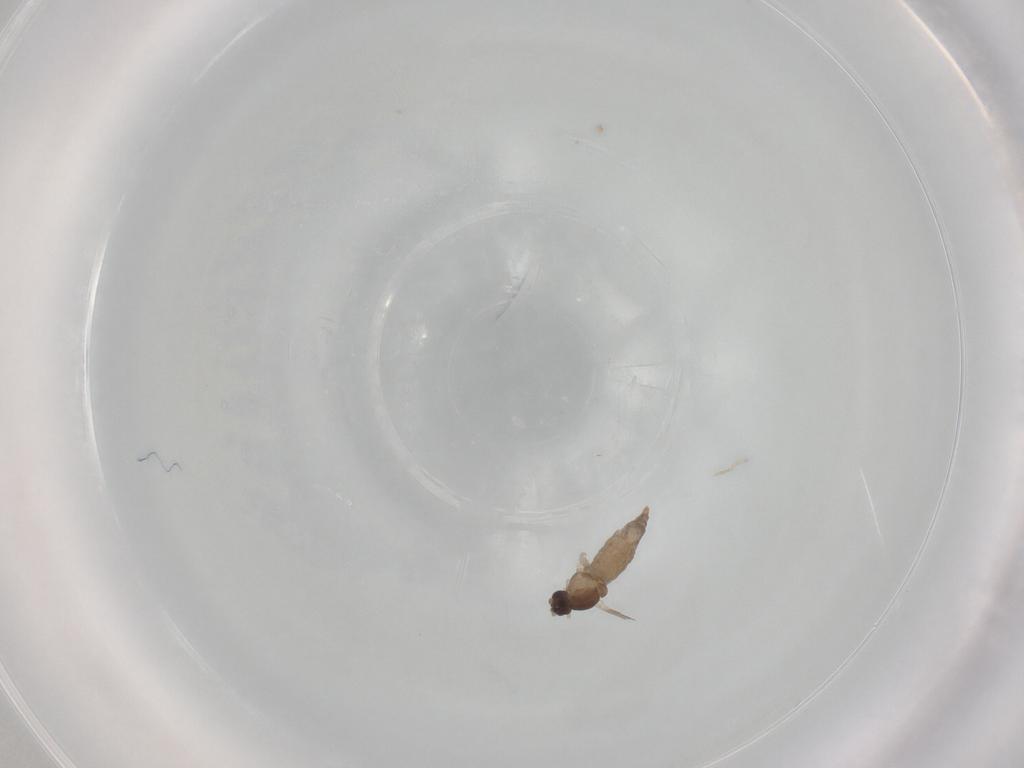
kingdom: Animalia
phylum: Arthropoda
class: Insecta
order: Diptera
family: Cecidomyiidae
